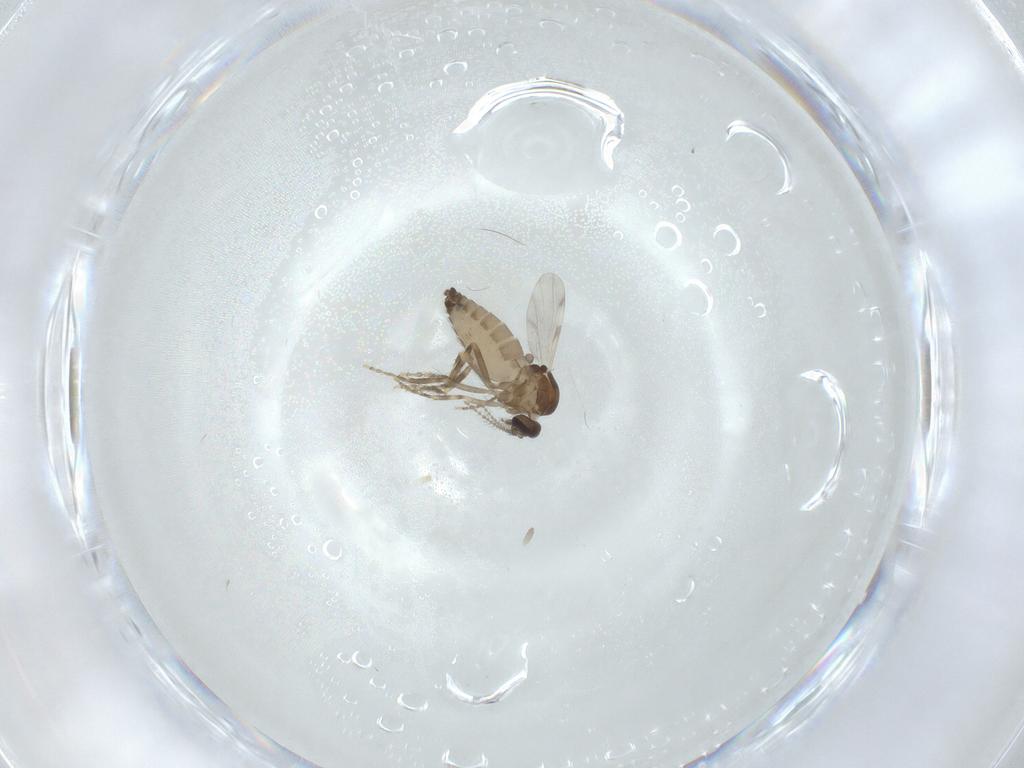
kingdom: Animalia
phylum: Arthropoda
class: Insecta
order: Diptera
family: Ceratopogonidae
